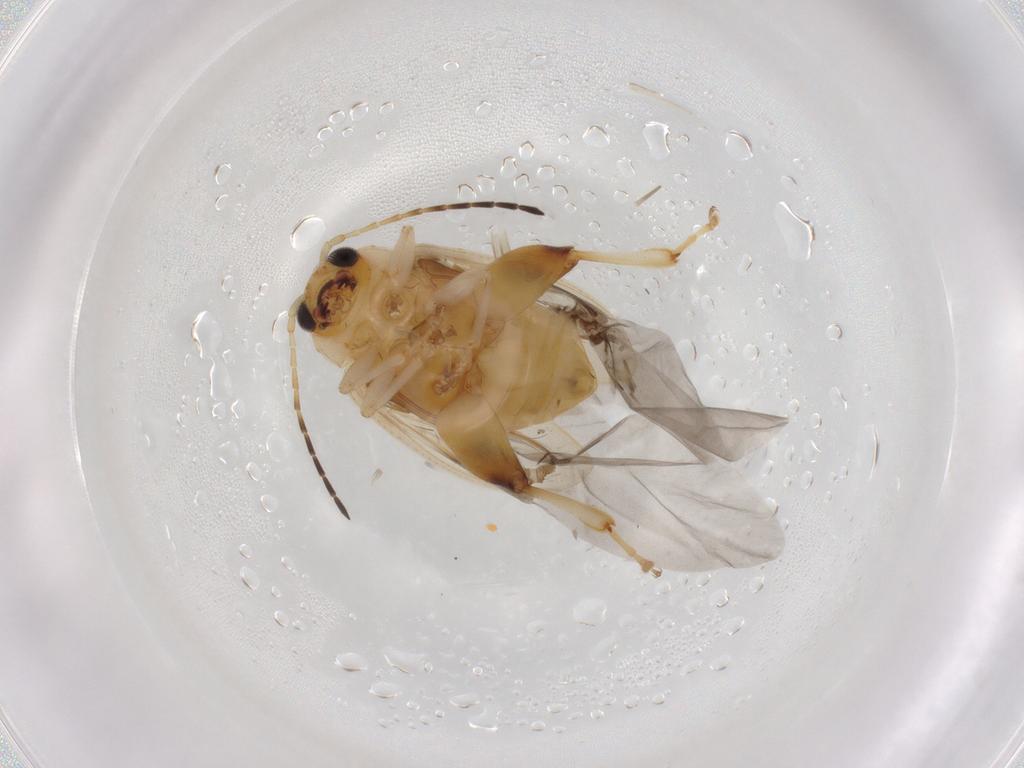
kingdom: Animalia
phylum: Arthropoda
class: Insecta
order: Coleoptera
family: Chrysomelidae
